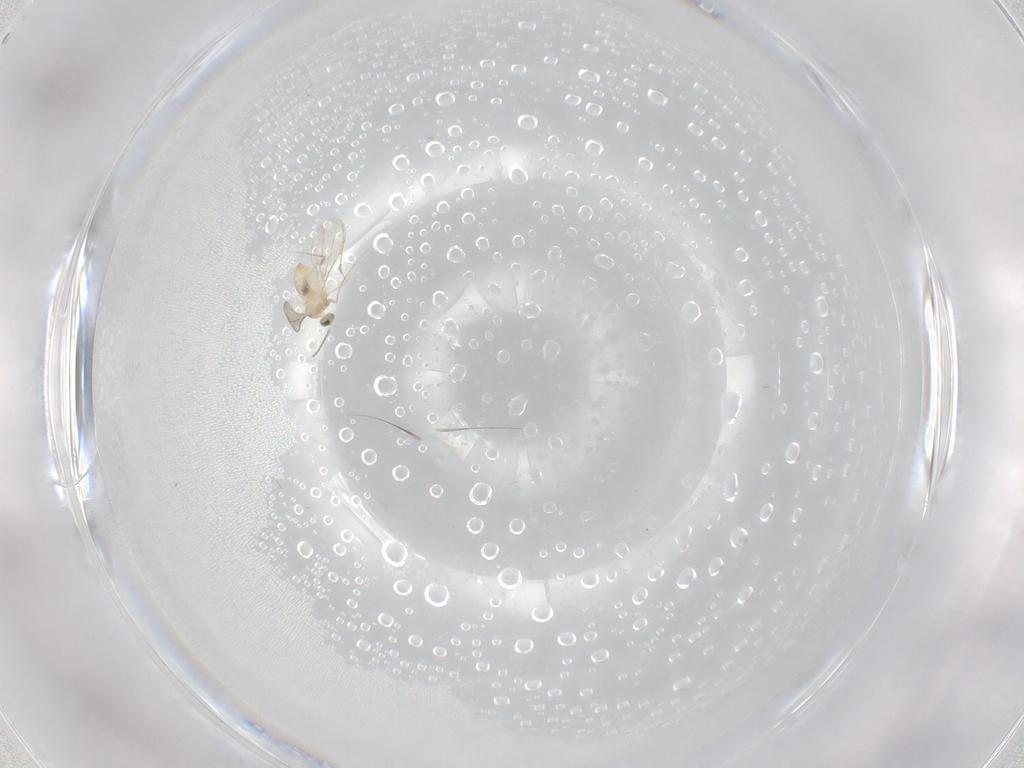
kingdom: Animalia
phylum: Arthropoda
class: Insecta
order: Diptera
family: Cecidomyiidae
